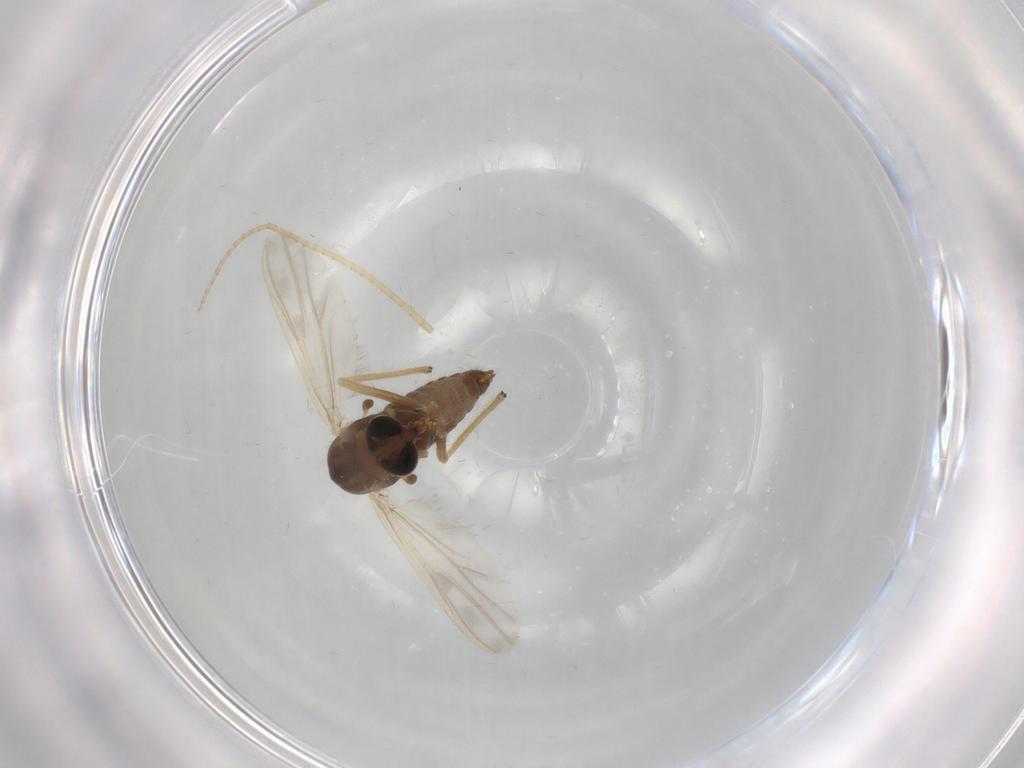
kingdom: Animalia
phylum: Arthropoda
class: Insecta
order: Diptera
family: Chironomidae
